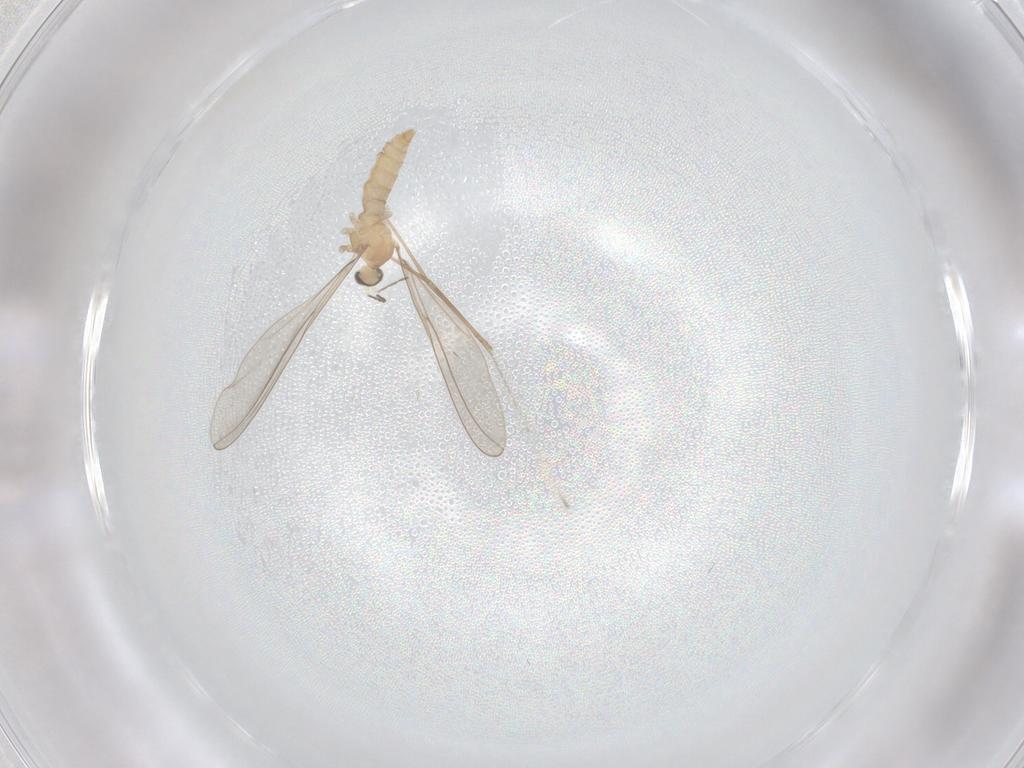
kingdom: Animalia
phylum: Arthropoda
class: Insecta
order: Diptera
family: Cecidomyiidae
